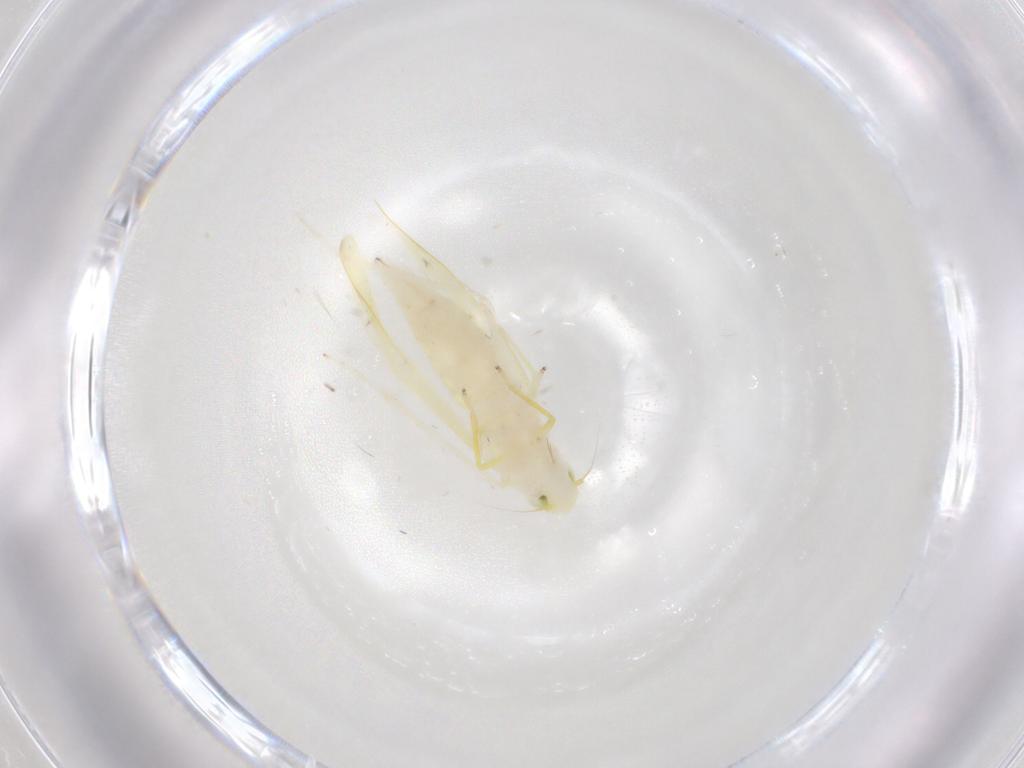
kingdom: Animalia
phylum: Arthropoda
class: Insecta
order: Hemiptera
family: Cicadellidae
